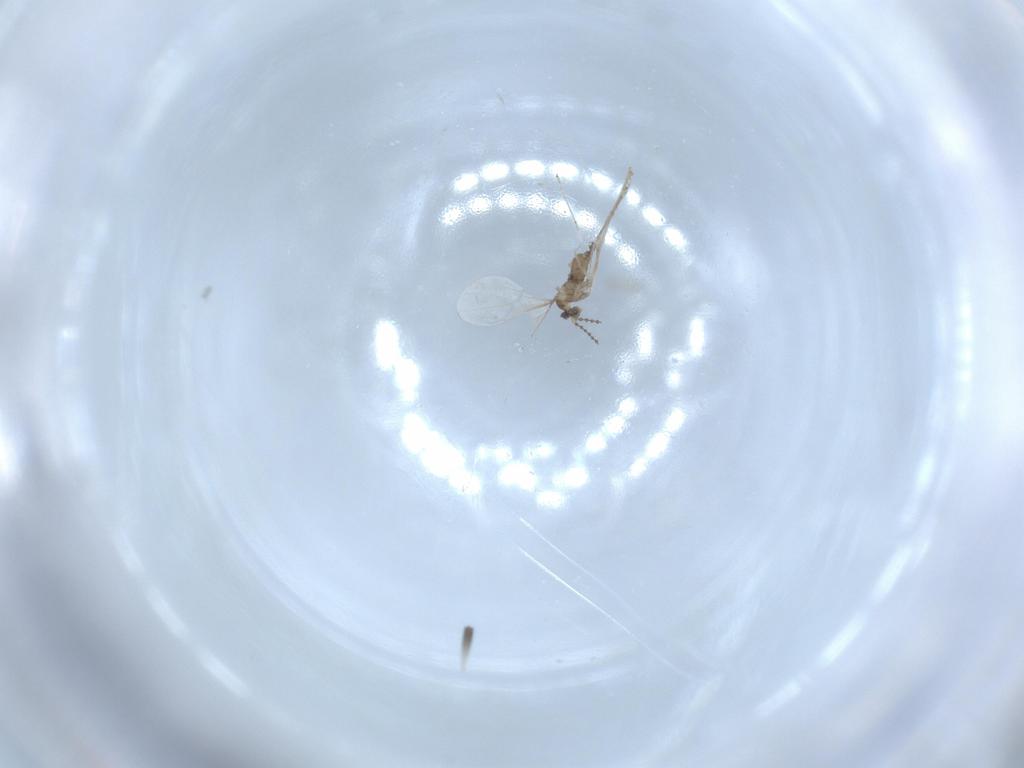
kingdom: Animalia
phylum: Arthropoda
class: Insecta
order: Diptera
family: Cecidomyiidae
